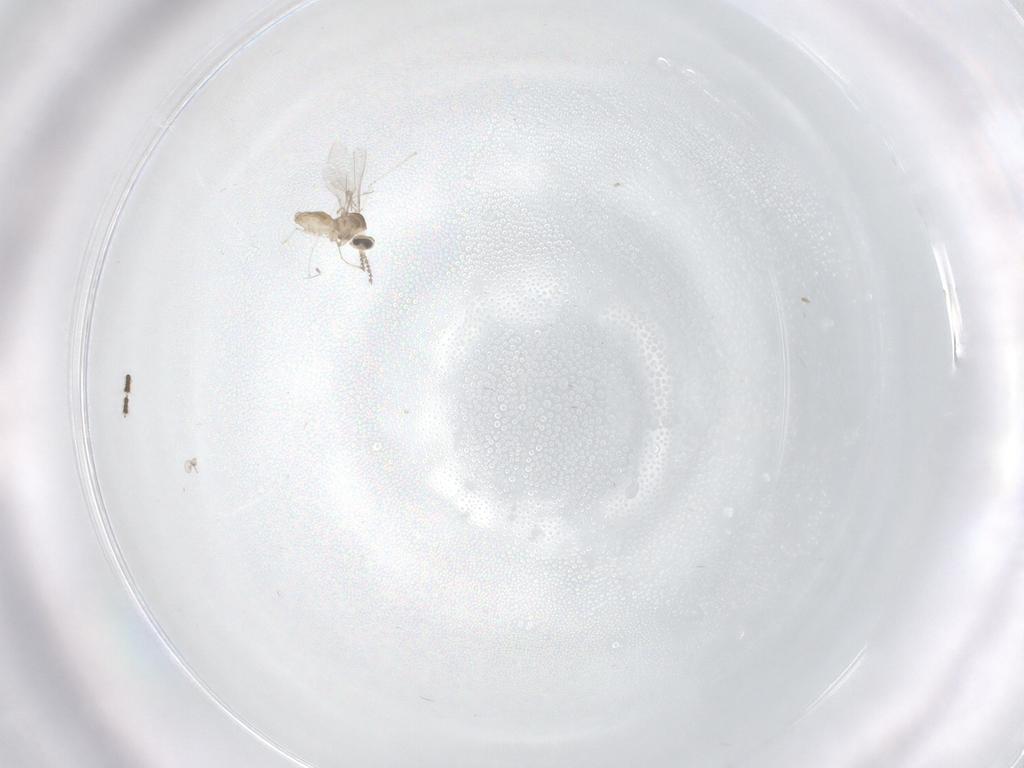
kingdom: Animalia
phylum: Arthropoda
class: Insecta
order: Diptera
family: Cecidomyiidae
